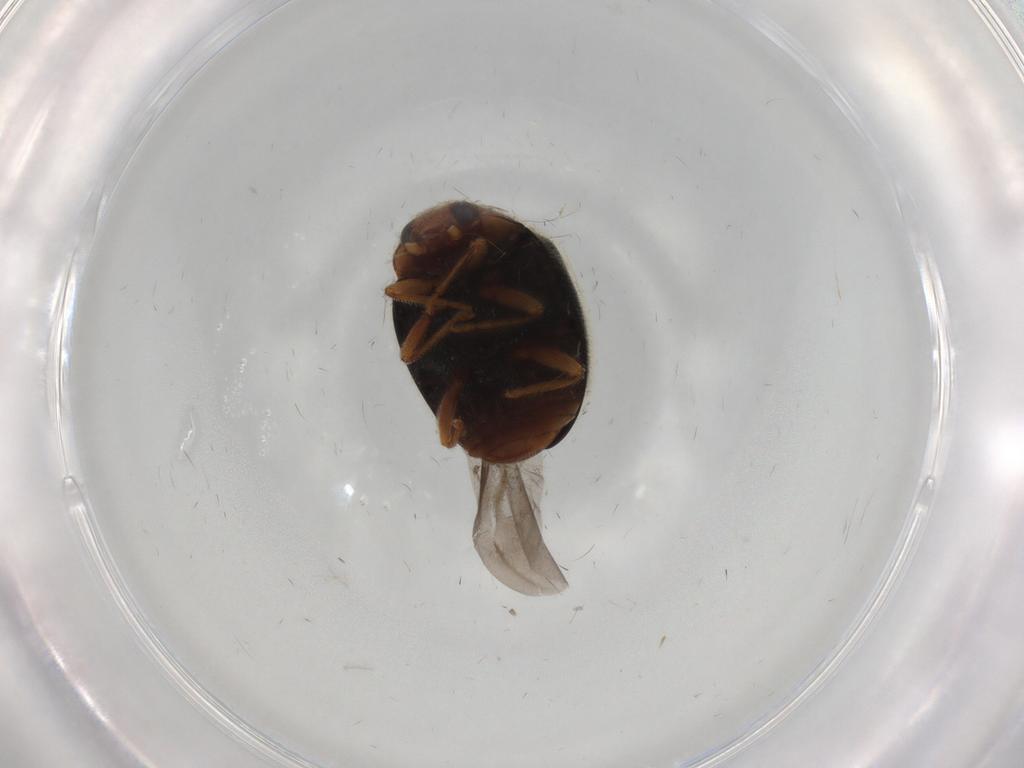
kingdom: Animalia
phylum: Arthropoda
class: Insecta
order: Coleoptera
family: Coccinellidae
